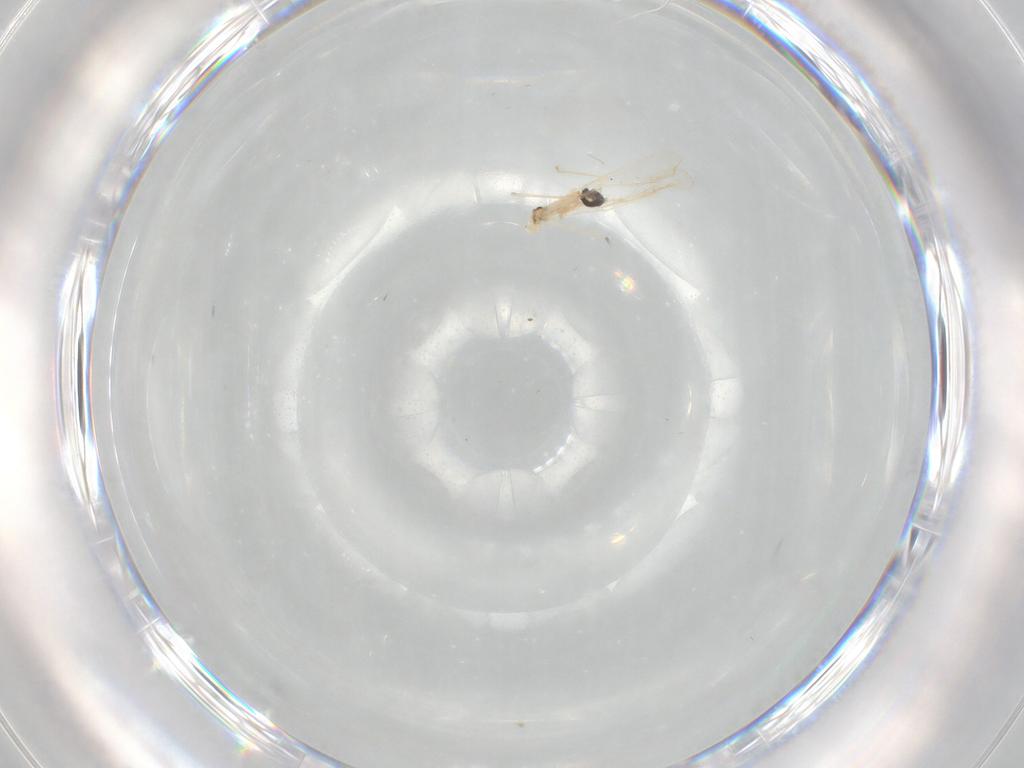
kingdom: Animalia
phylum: Arthropoda
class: Insecta
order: Diptera
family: Cecidomyiidae
